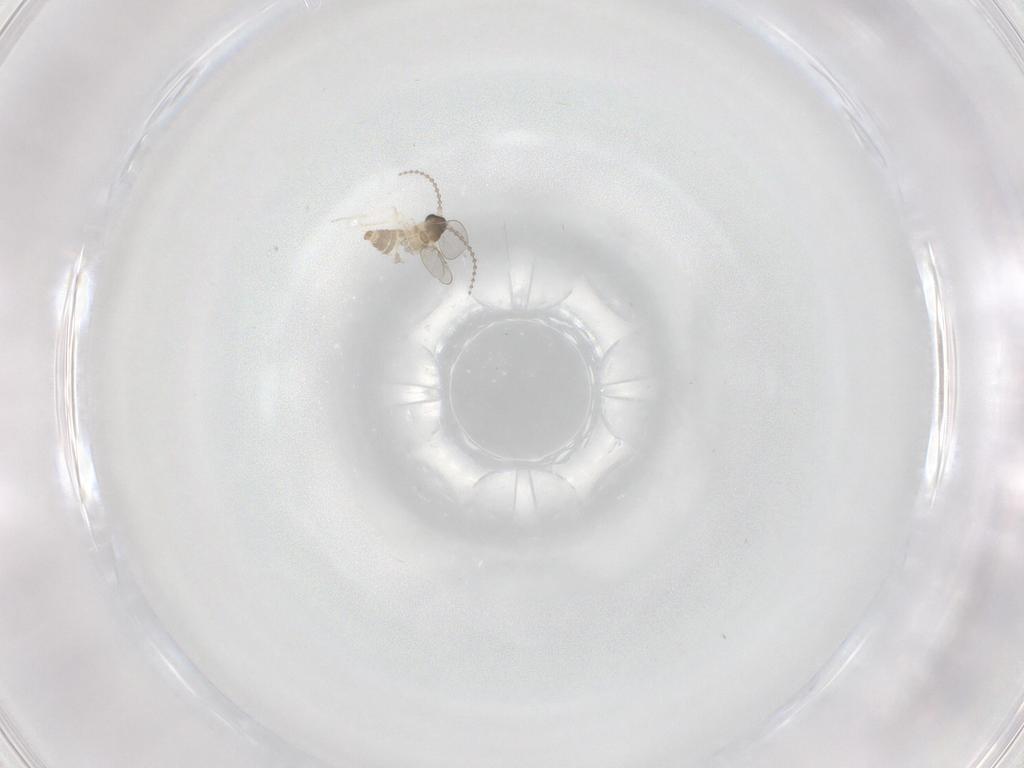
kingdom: Animalia
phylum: Arthropoda
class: Insecta
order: Diptera
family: Cecidomyiidae
